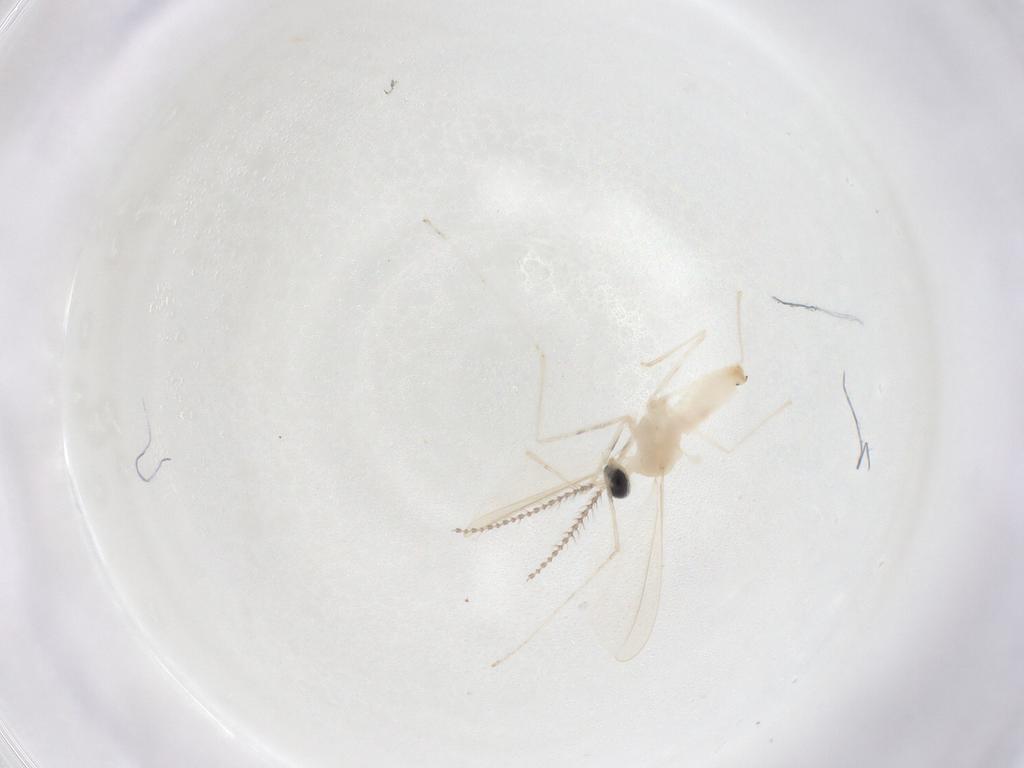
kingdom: Animalia
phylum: Arthropoda
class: Insecta
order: Diptera
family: Cecidomyiidae
